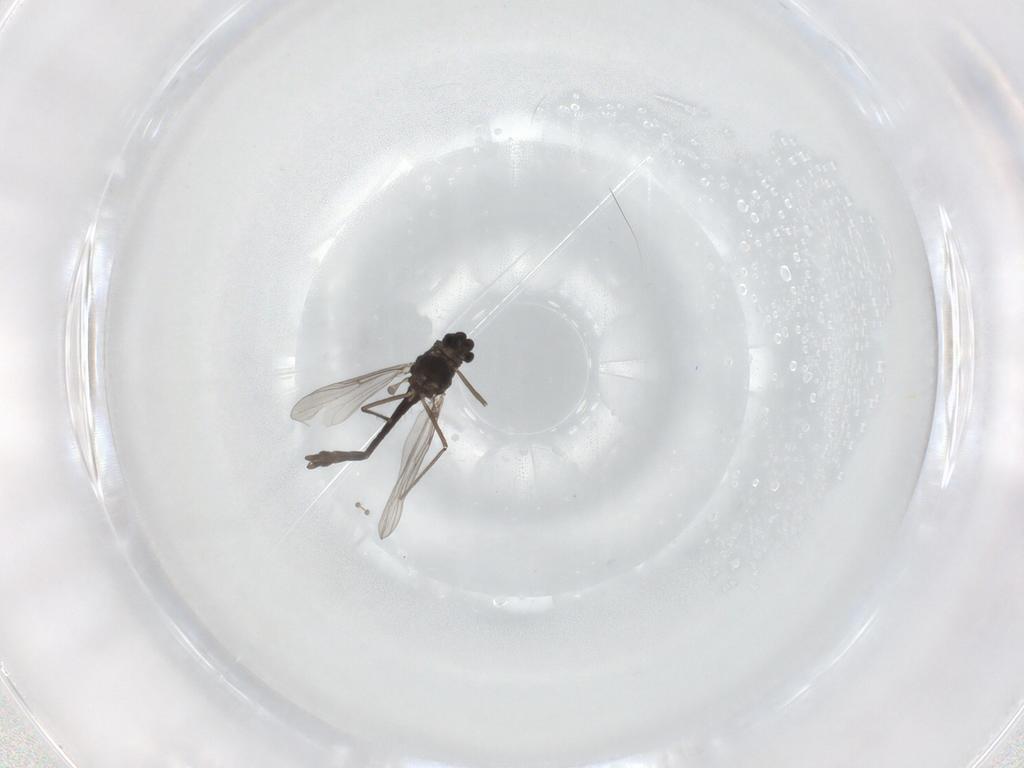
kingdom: Animalia
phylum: Arthropoda
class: Insecta
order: Diptera
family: Chironomidae
